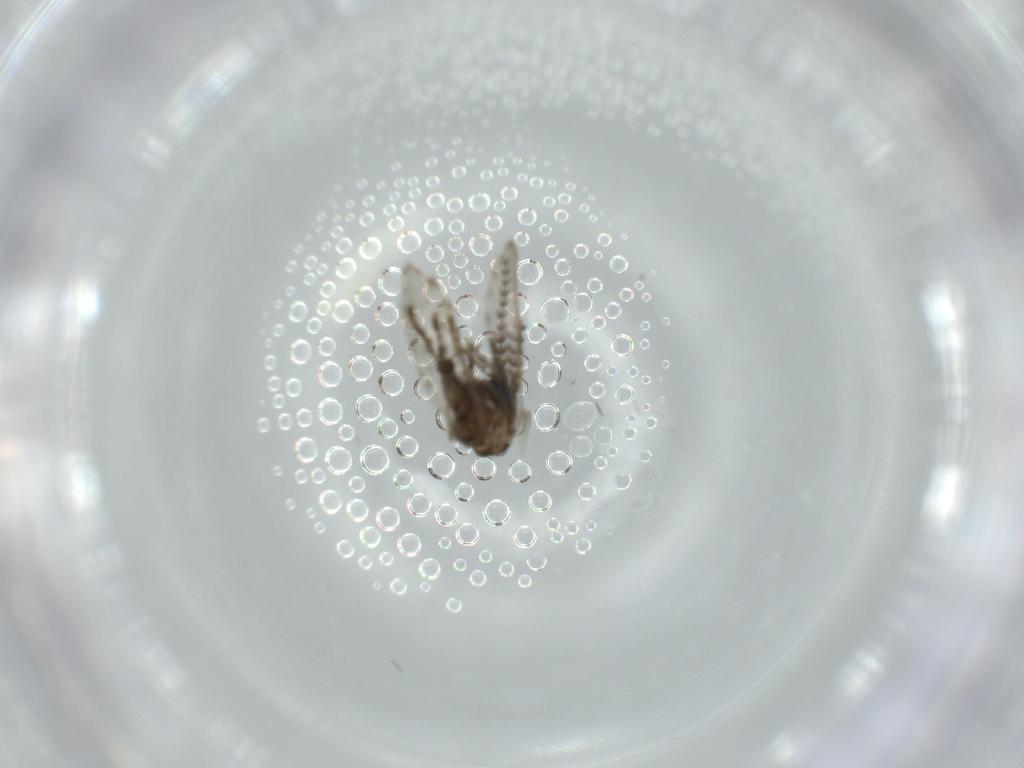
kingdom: Animalia
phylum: Arthropoda
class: Insecta
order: Diptera
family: Psychodidae
